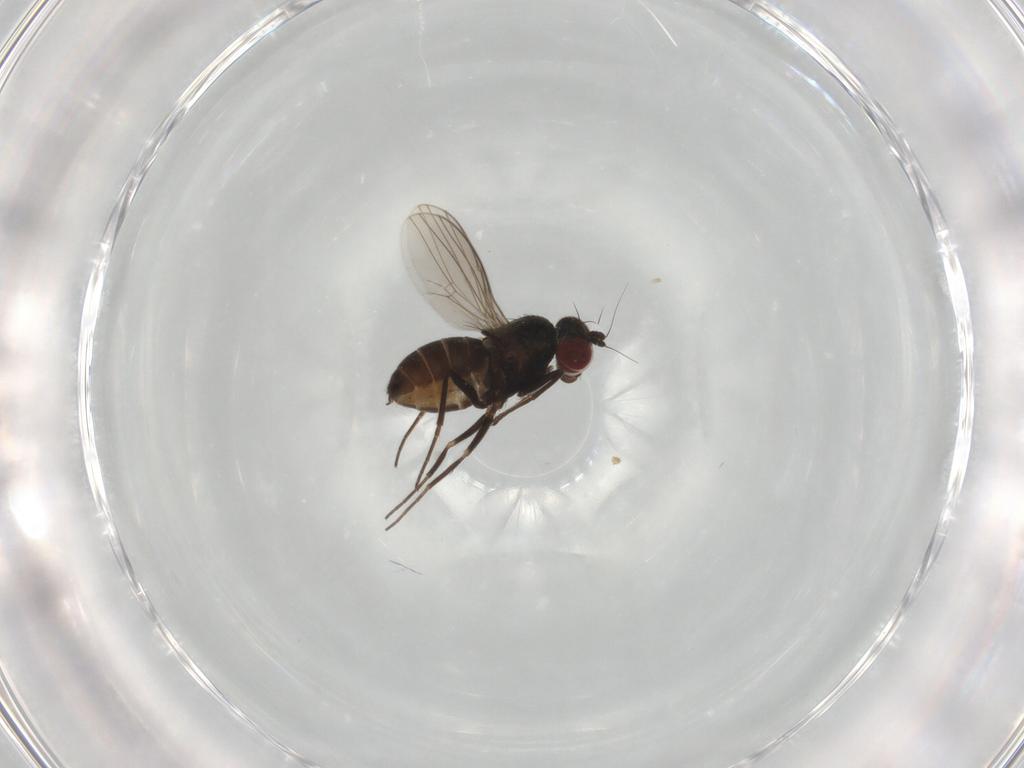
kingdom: Animalia
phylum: Arthropoda
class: Insecta
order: Diptera
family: Dolichopodidae
